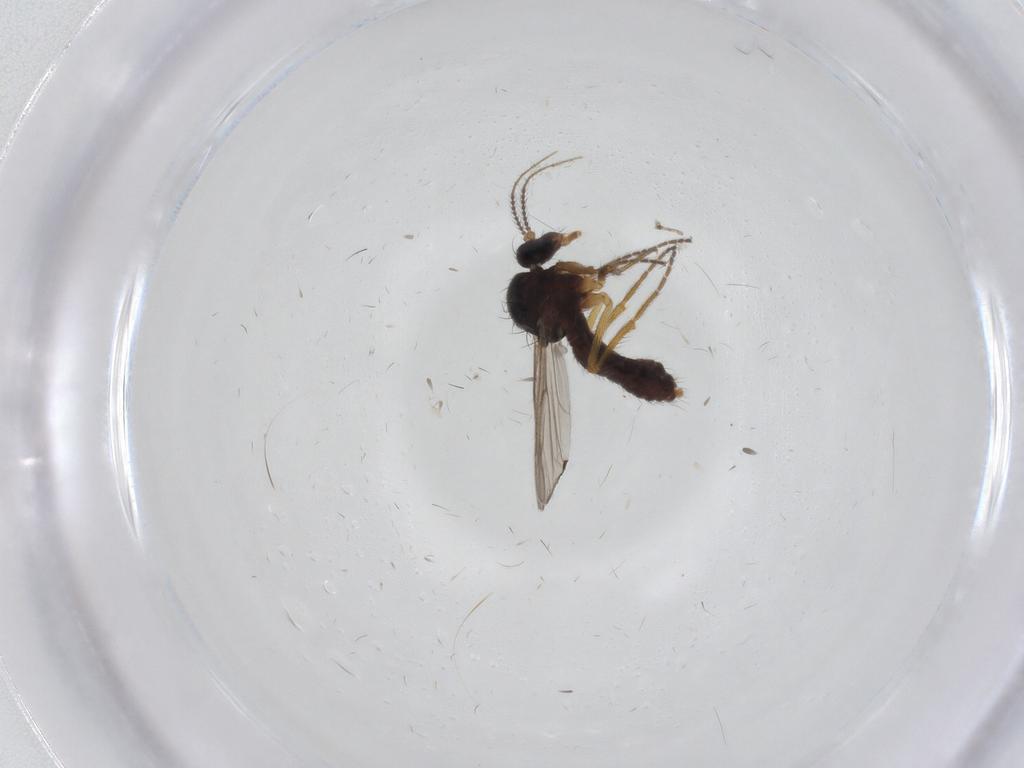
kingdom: Animalia
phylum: Arthropoda
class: Insecta
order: Diptera
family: Ceratopogonidae
